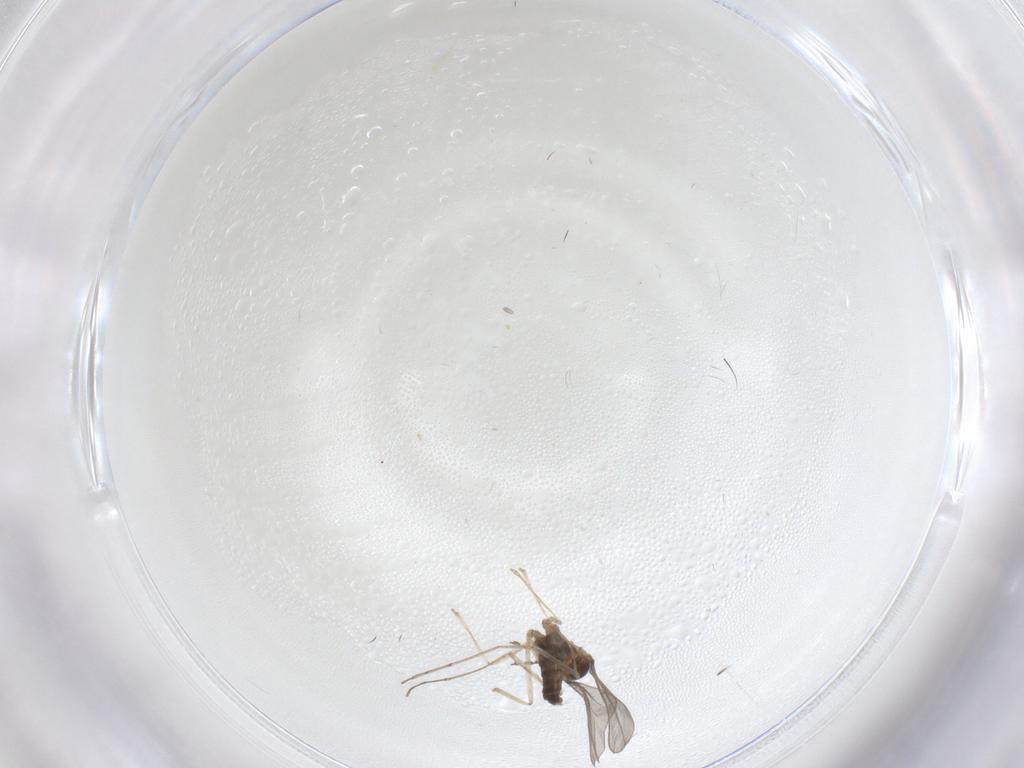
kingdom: Animalia
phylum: Arthropoda
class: Insecta
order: Diptera
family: Cecidomyiidae
